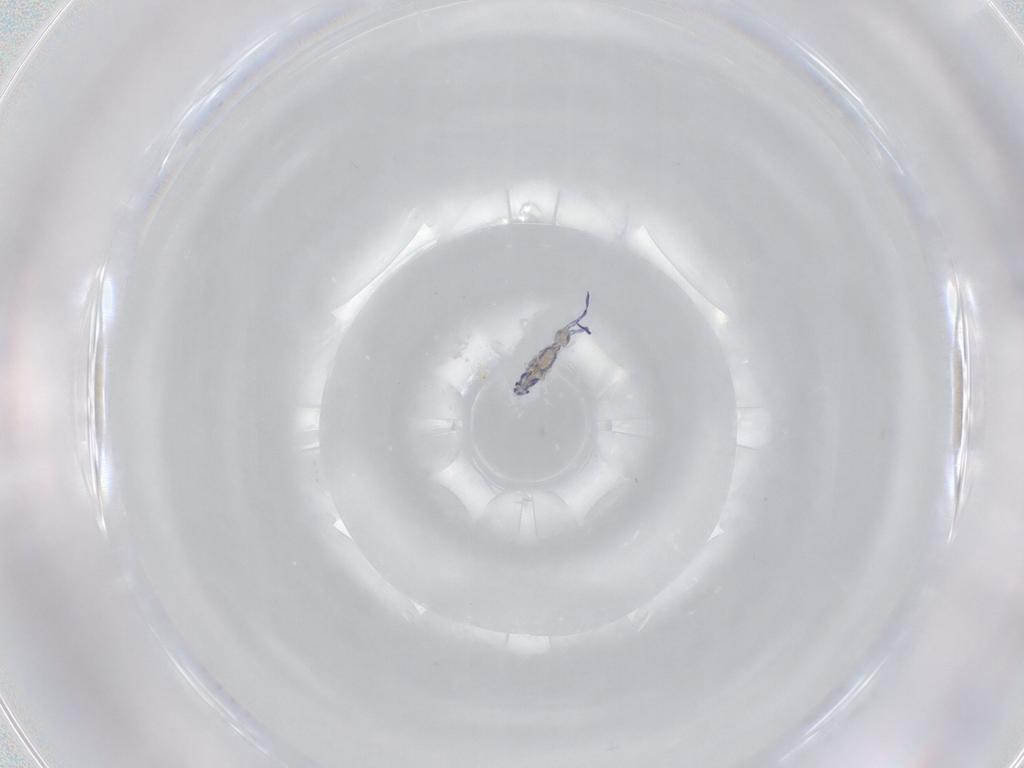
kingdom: Animalia
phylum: Arthropoda
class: Collembola
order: Entomobryomorpha
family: Entomobryidae
